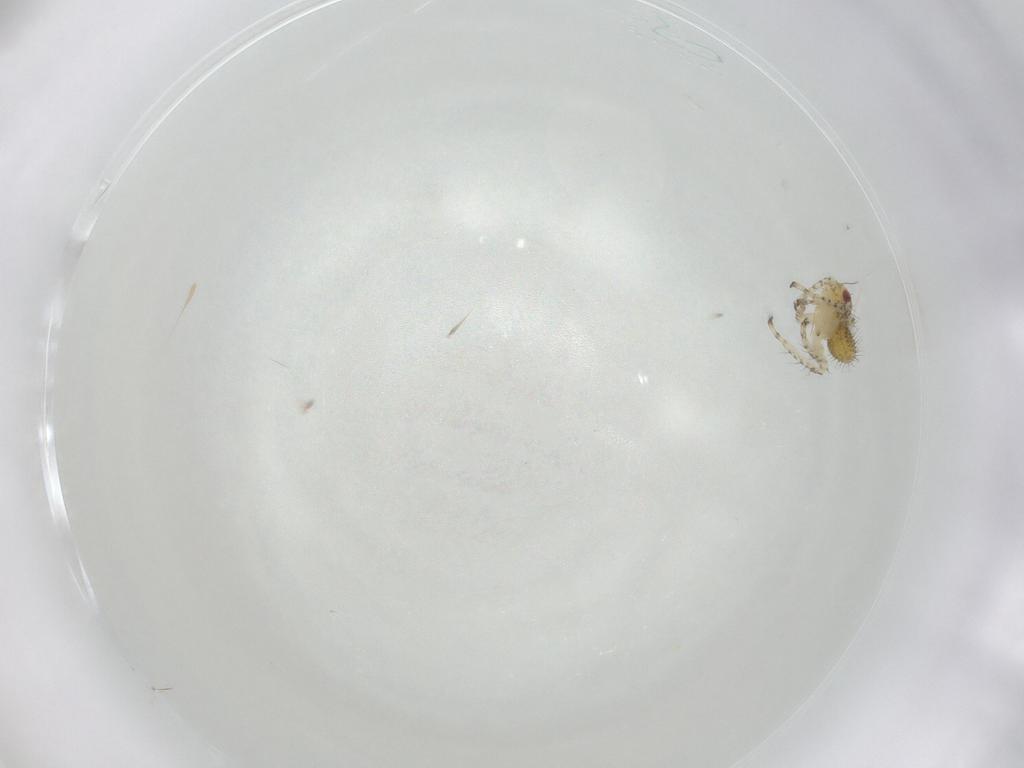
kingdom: Animalia
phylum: Arthropoda
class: Insecta
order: Hemiptera
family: Cicadellidae
